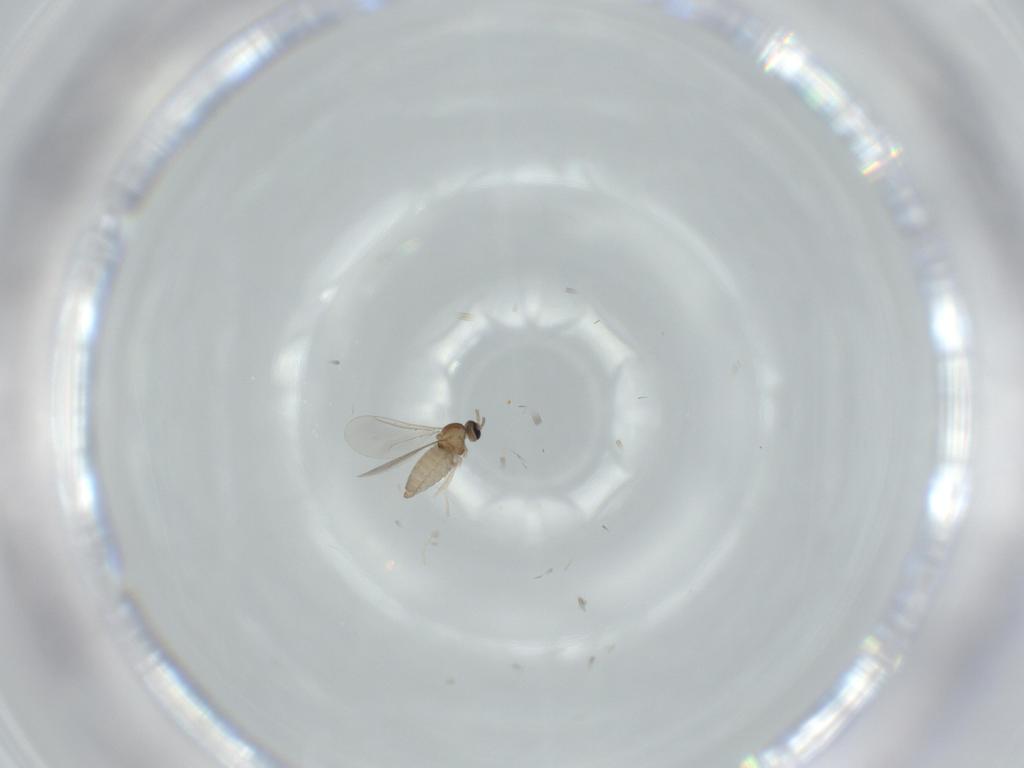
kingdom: Animalia
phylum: Arthropoda
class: Insecta
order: Diptera
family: Cecidomyiidae
